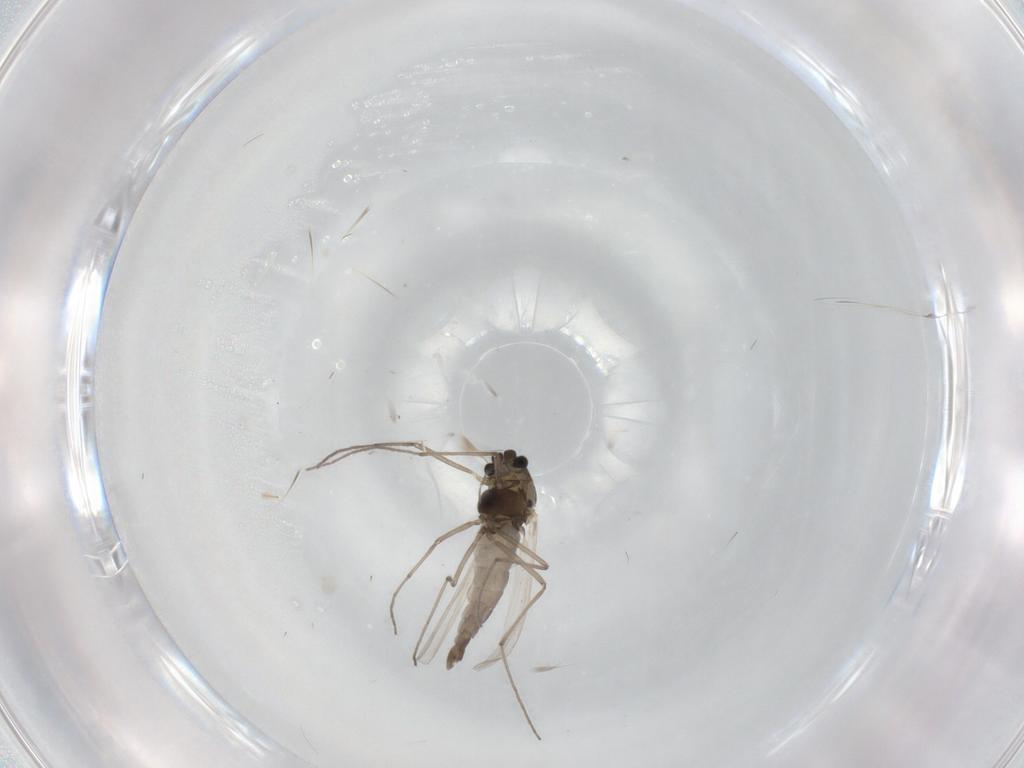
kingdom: Animalia
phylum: Arthropoda
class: Insecta
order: Diptera
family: Chironomidae
